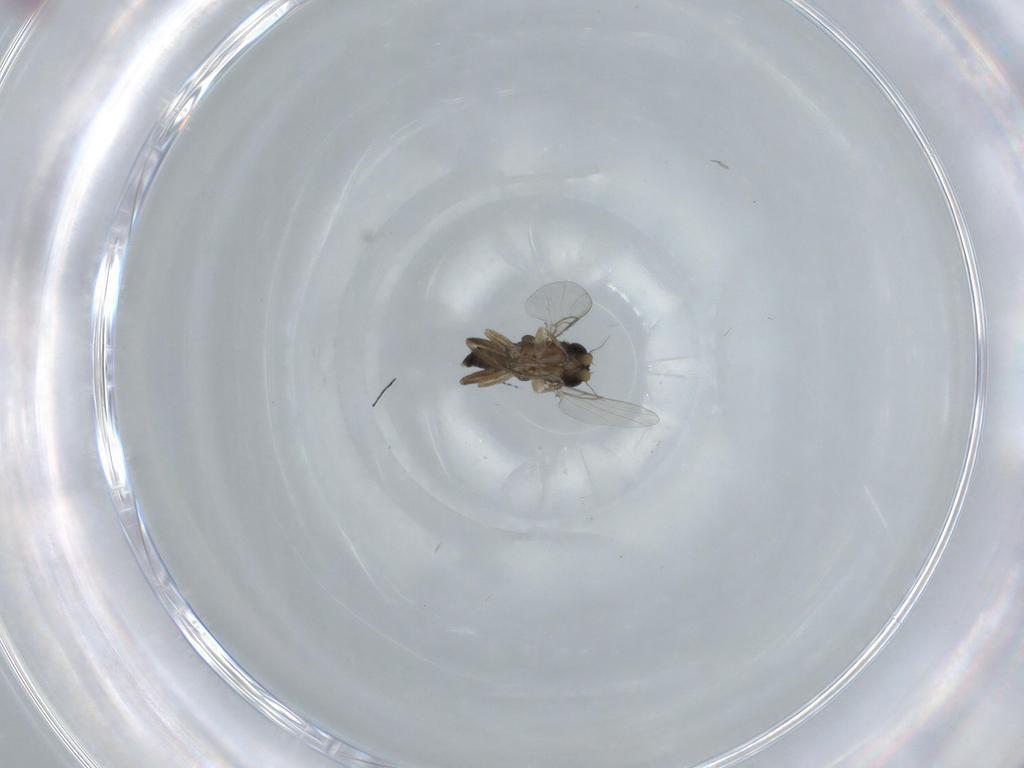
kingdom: Animalia
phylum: Arthropoda
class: Insecta
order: Diptera
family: Phoridae
